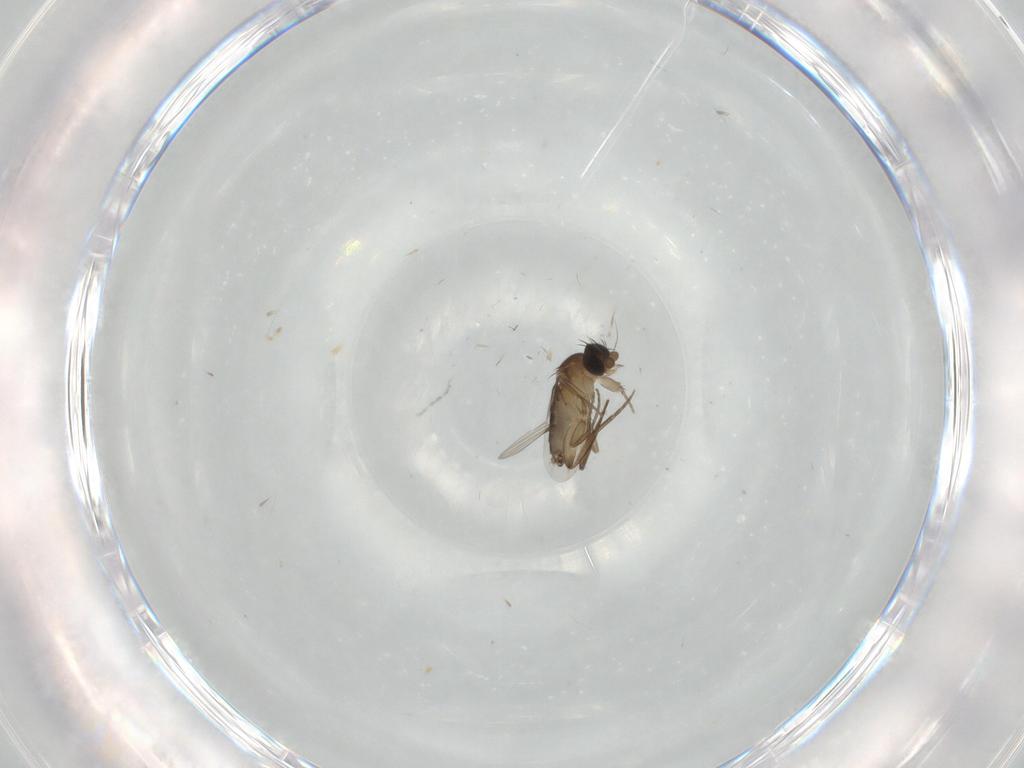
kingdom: Animalia
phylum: Arthropoda
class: Insecta
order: Diptera
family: Phoridae
